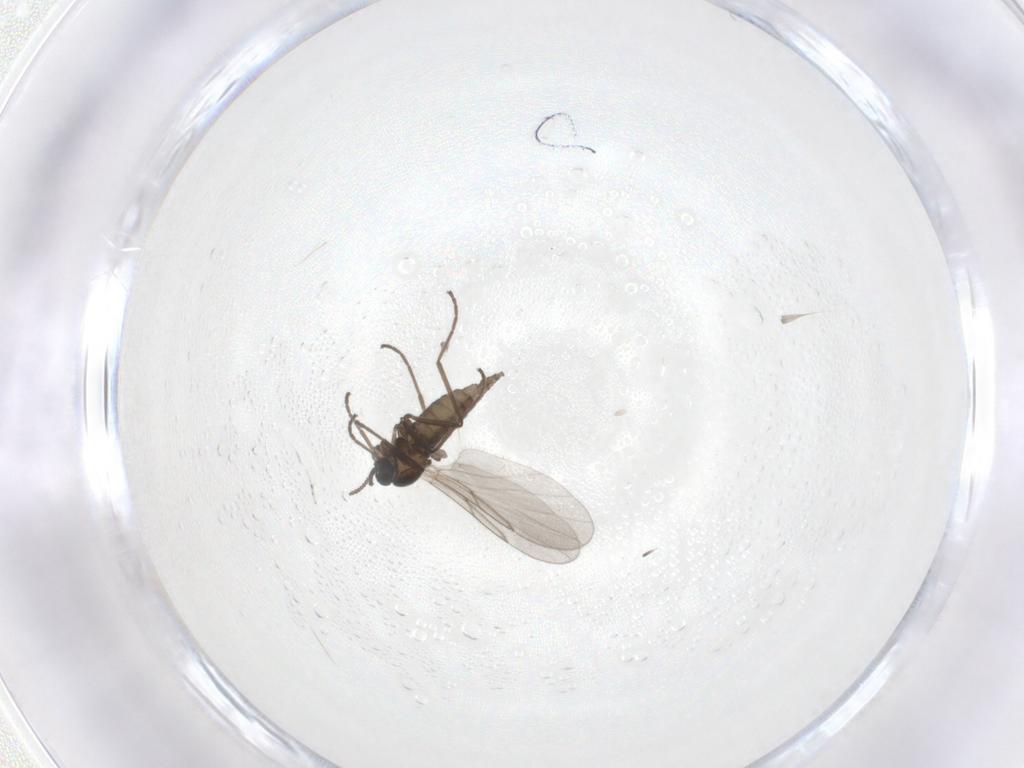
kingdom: Animalia
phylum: Arthropoda
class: Insecta
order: Diptera
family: Cecidomyiidae
